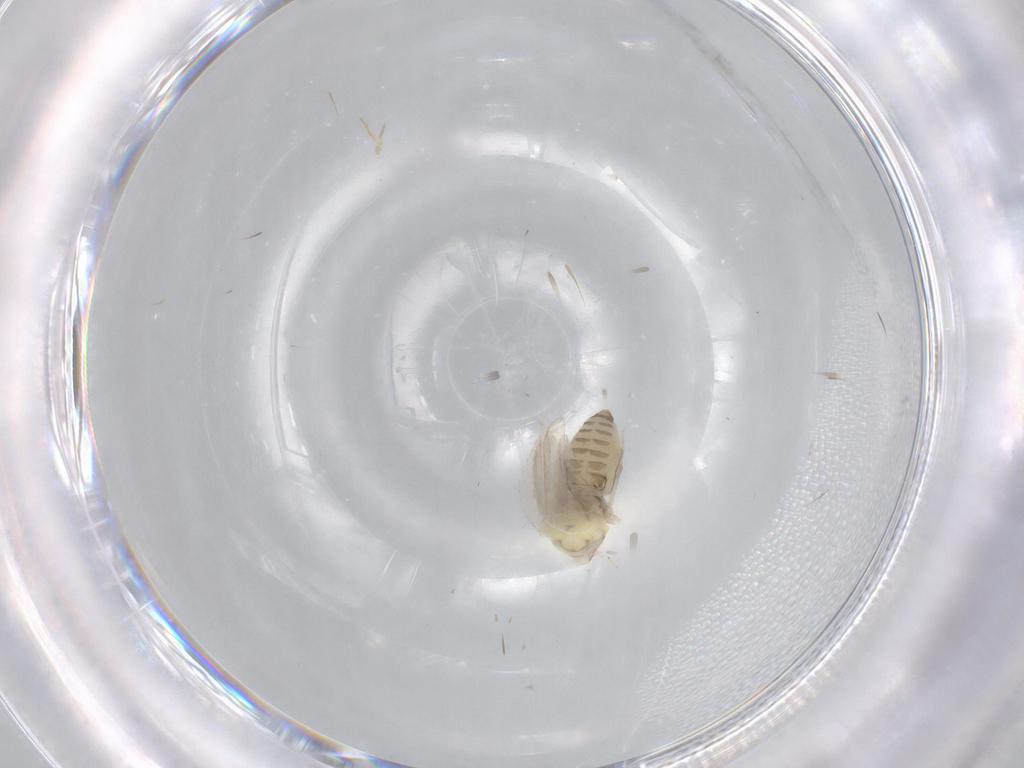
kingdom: Animalia
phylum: Arthropoda
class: Insecta
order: Hemiptera
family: Aleyrodidae
